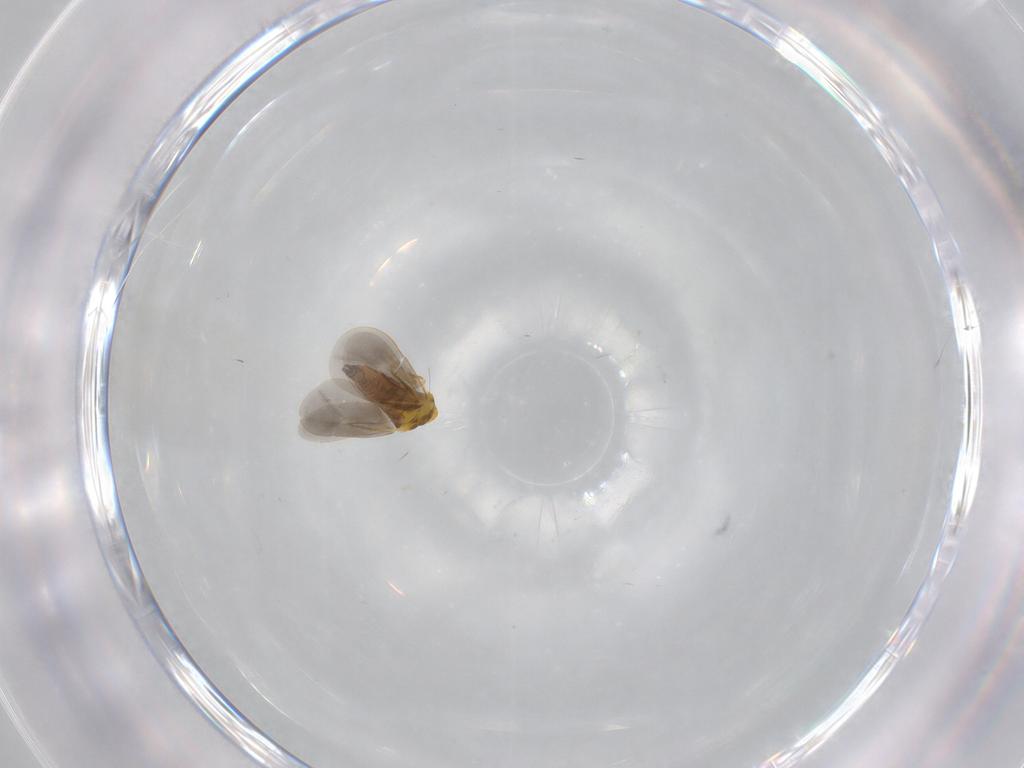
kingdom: Animalia
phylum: Arthropoda
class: Insecta
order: Hemiptera
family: Aleyrodidae
